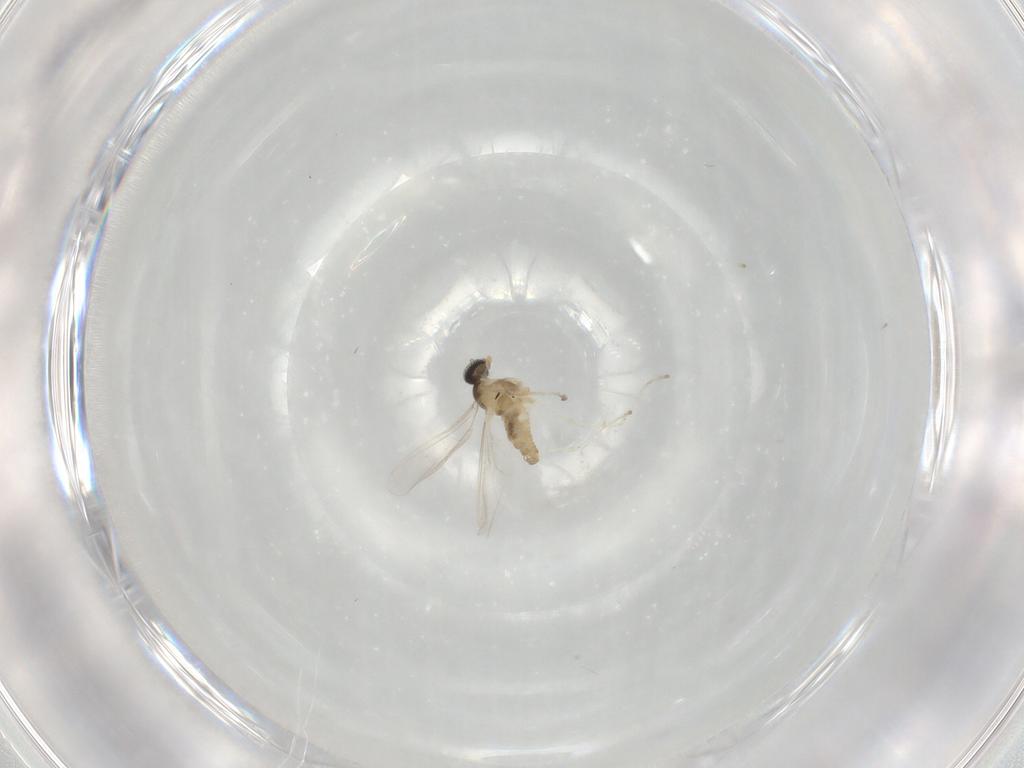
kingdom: Animalia
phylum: Arthropoda
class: Insecta
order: Diptera
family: Cecidomyiidae
